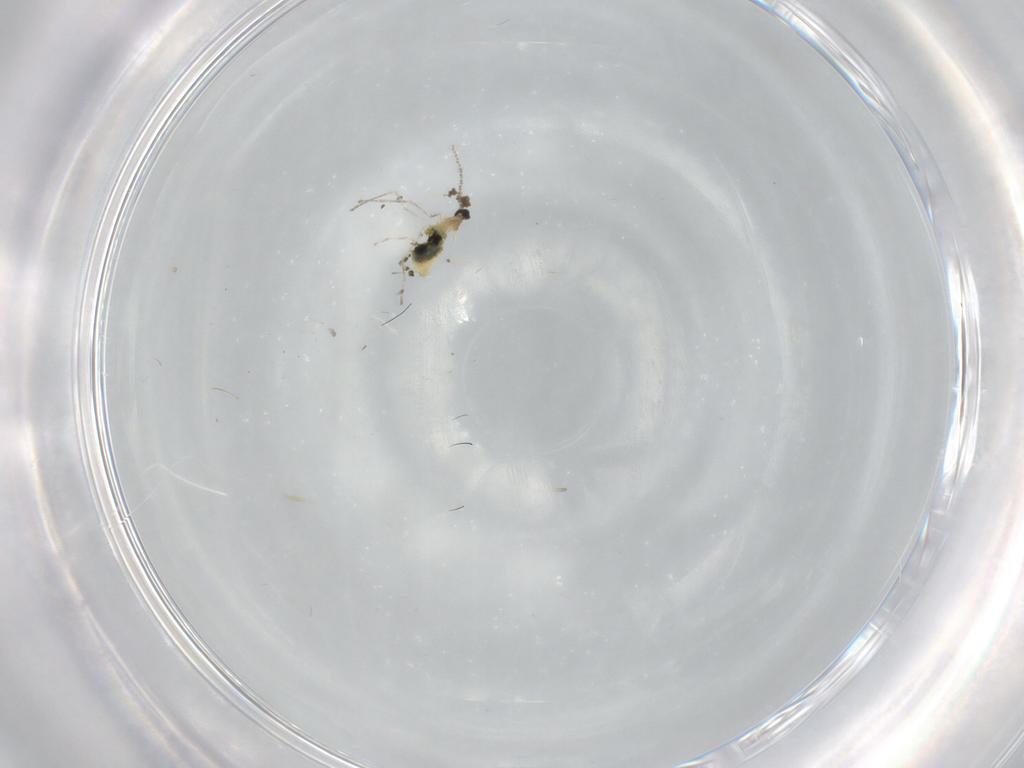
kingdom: Animalia
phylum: Arthropoda
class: Insecta
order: Diptera
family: Cecidomyiidae
